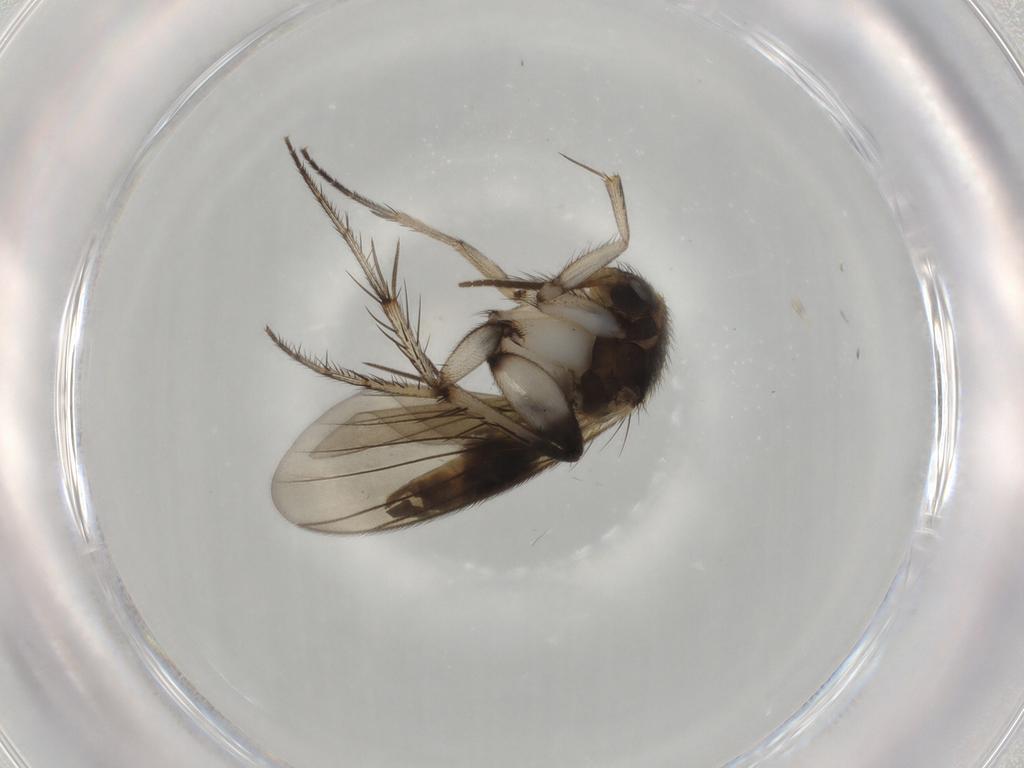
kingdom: Animalia
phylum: Arthropoda
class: Insecta
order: Diptera
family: Mycetophilidae
